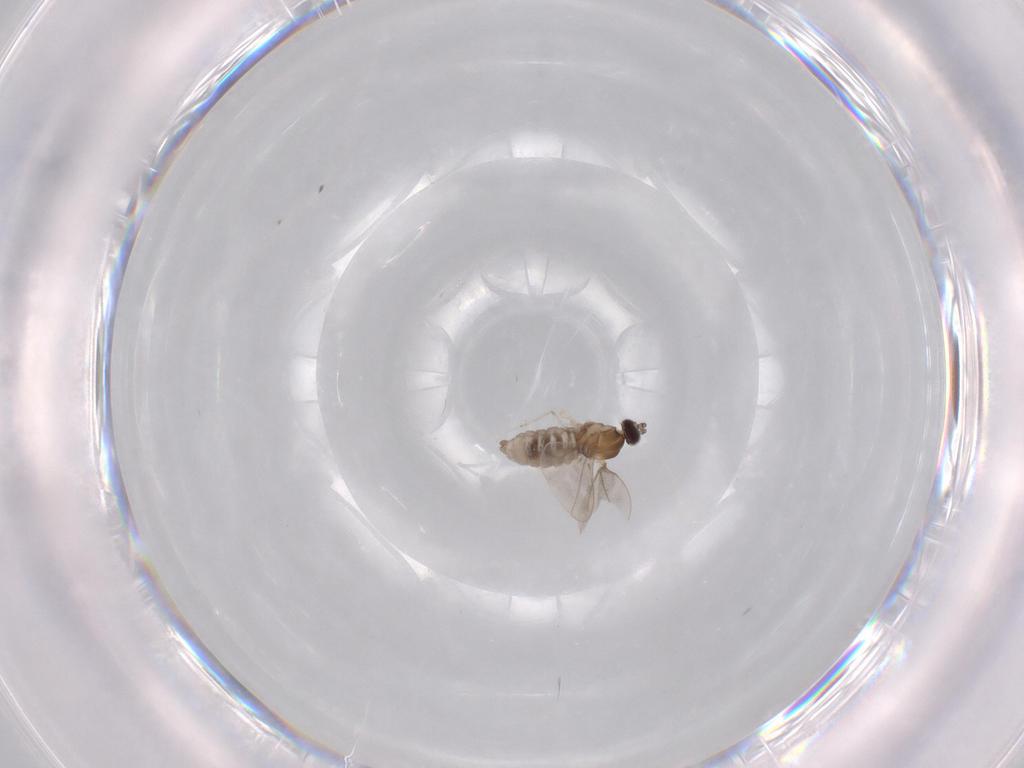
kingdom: Animalia
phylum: Arthropoda
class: Insecta
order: Diptera
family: Cecidomyiidae
